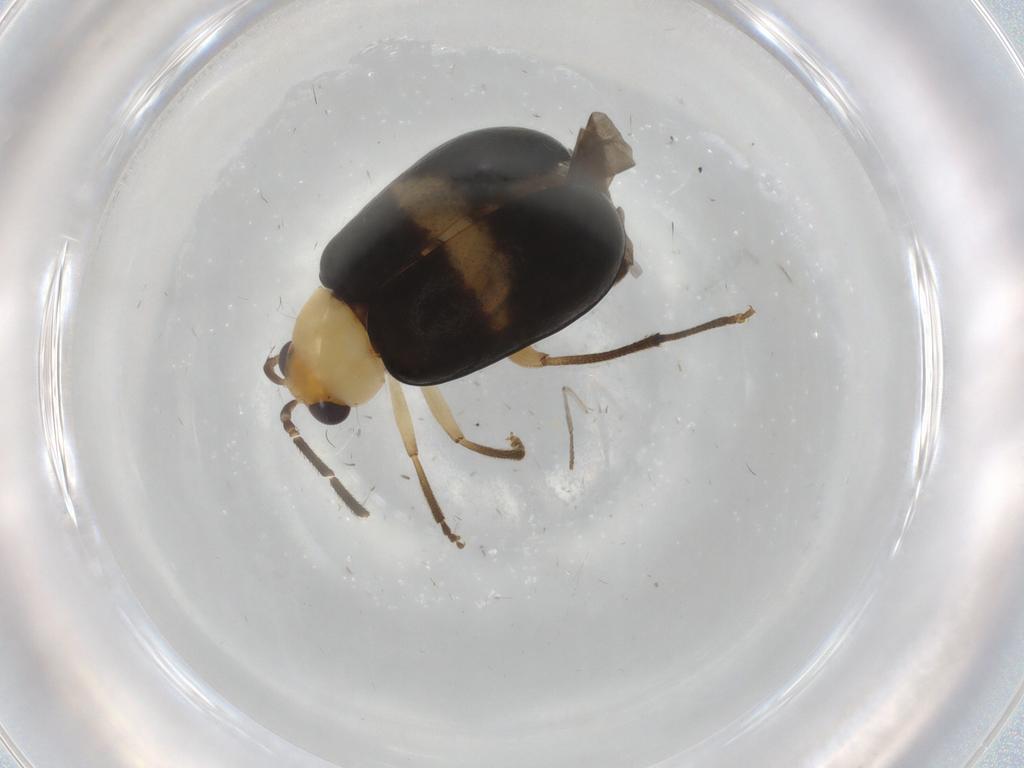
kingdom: Animalia
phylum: Arthropoda
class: Insecta
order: Coleoptera
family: Chrysomelidae
